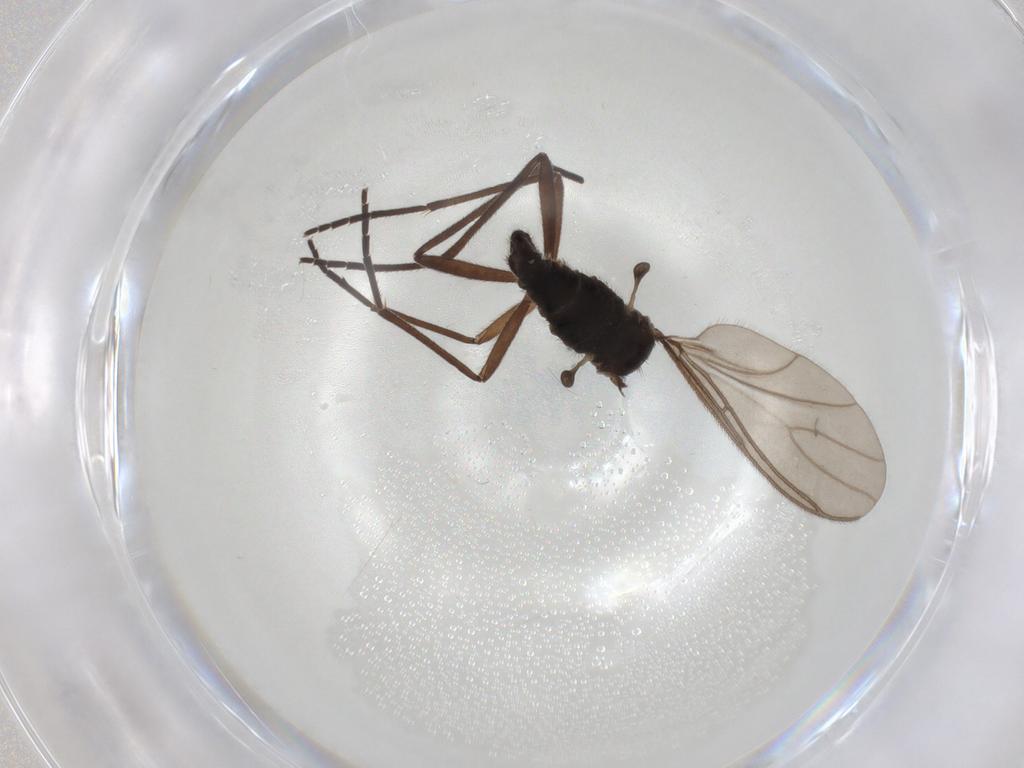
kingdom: Animalia
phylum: Arthropoda
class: Insecta
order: Diptera
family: Sciaridae
